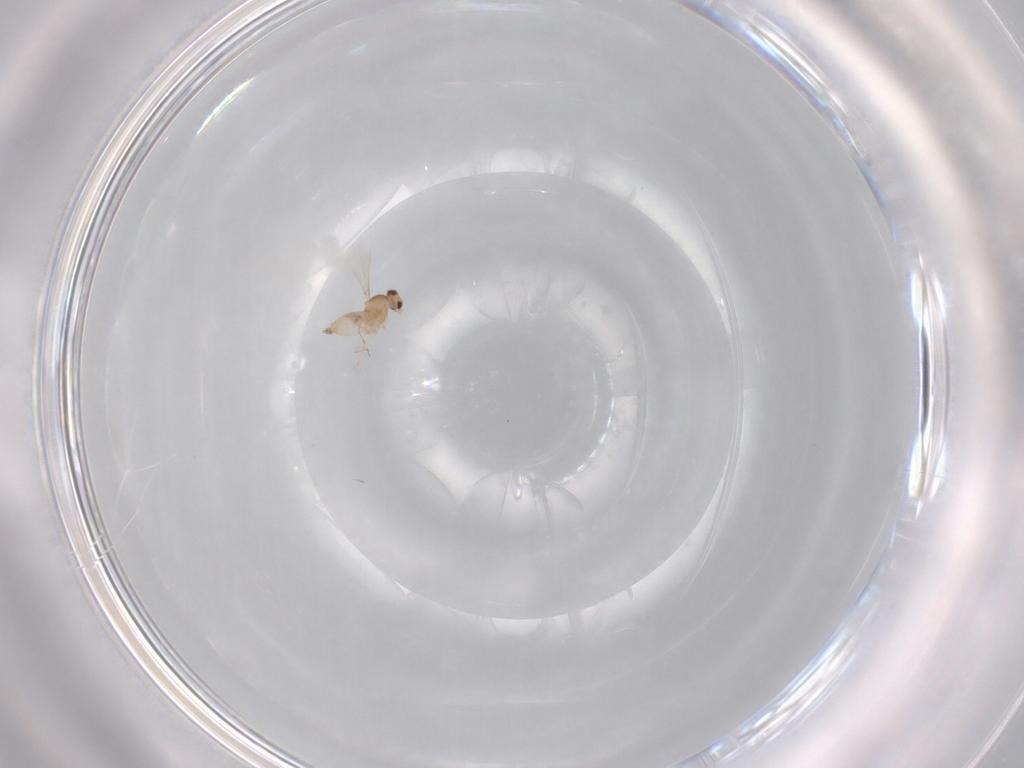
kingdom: Animalia
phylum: Arthropoda
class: Insecta
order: Diptera
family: Cecidomyiidae
